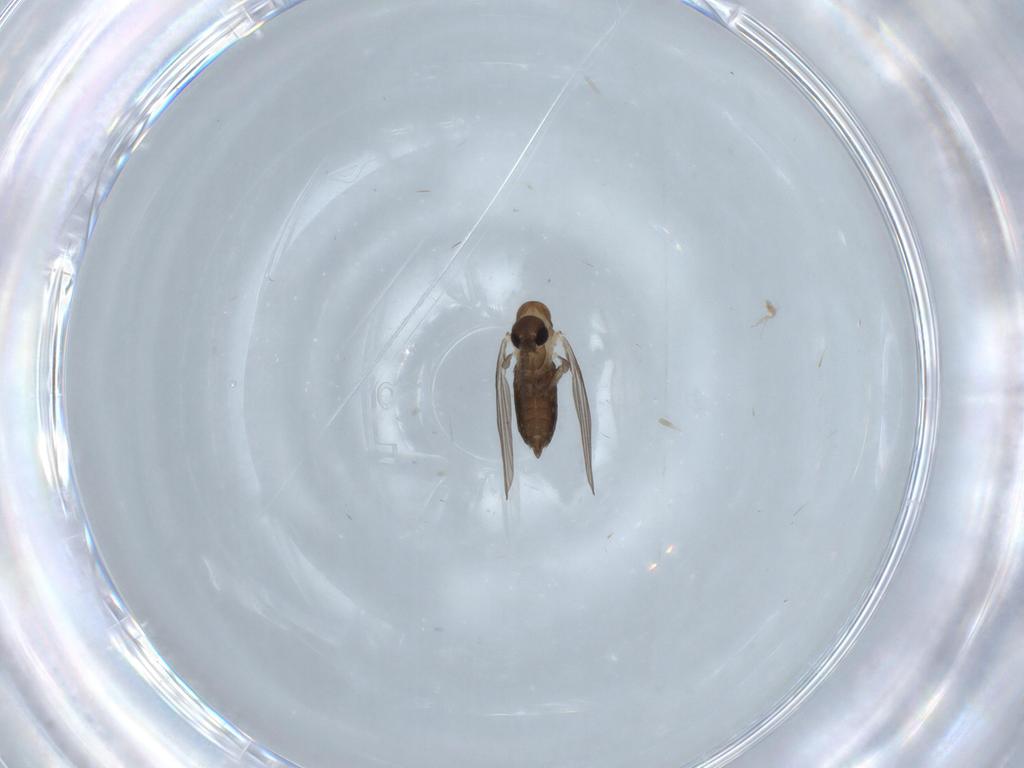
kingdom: Animalia
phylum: Arthropoda
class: Insecta
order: Diptera
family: Psychodidae
